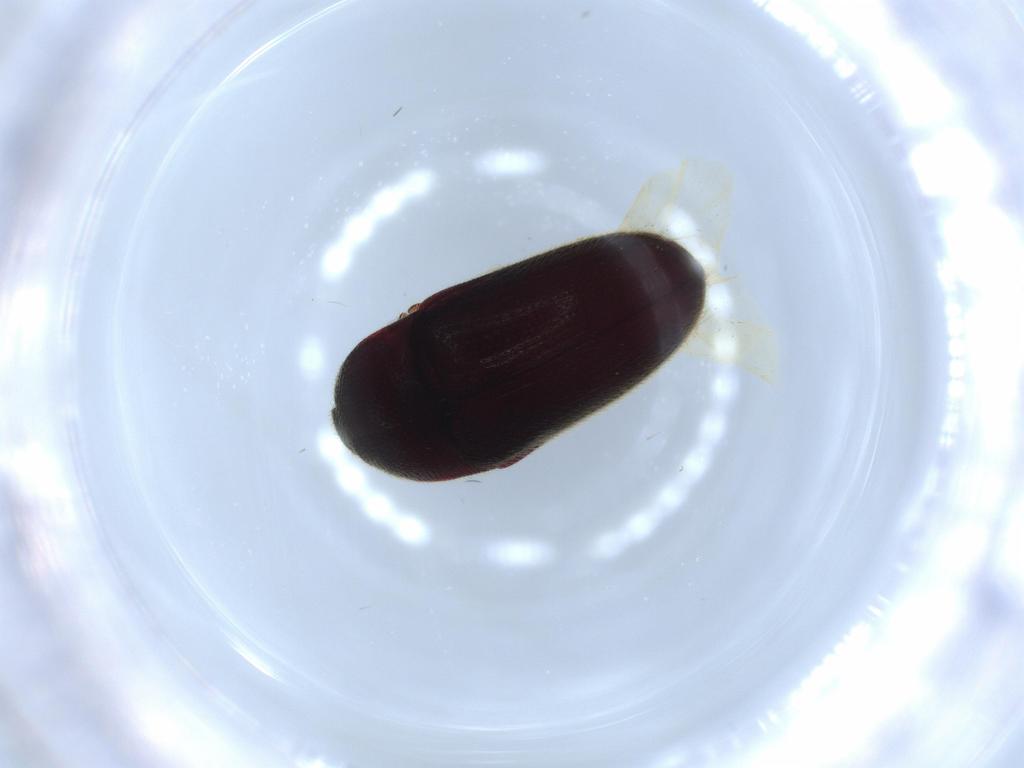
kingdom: Animalia
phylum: Arthropoda
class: Insecta
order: Coleoptera
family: Throscidae
